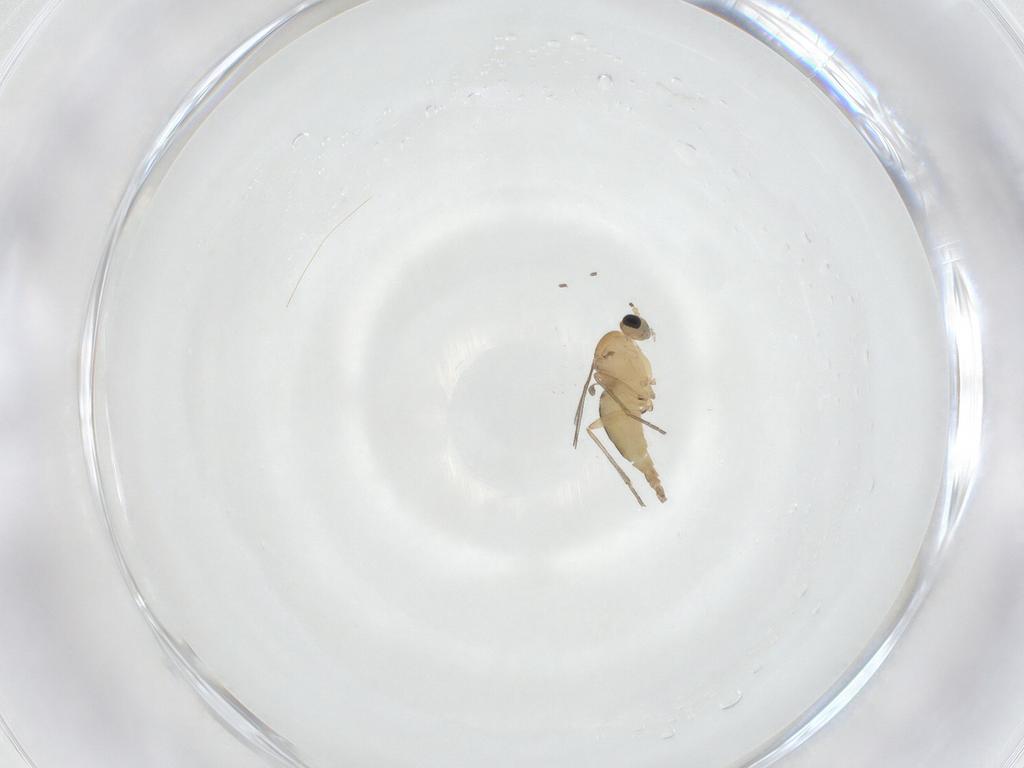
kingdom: Animalia
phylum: Arthropoda
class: Insecta
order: Diptera
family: Sciaridae
